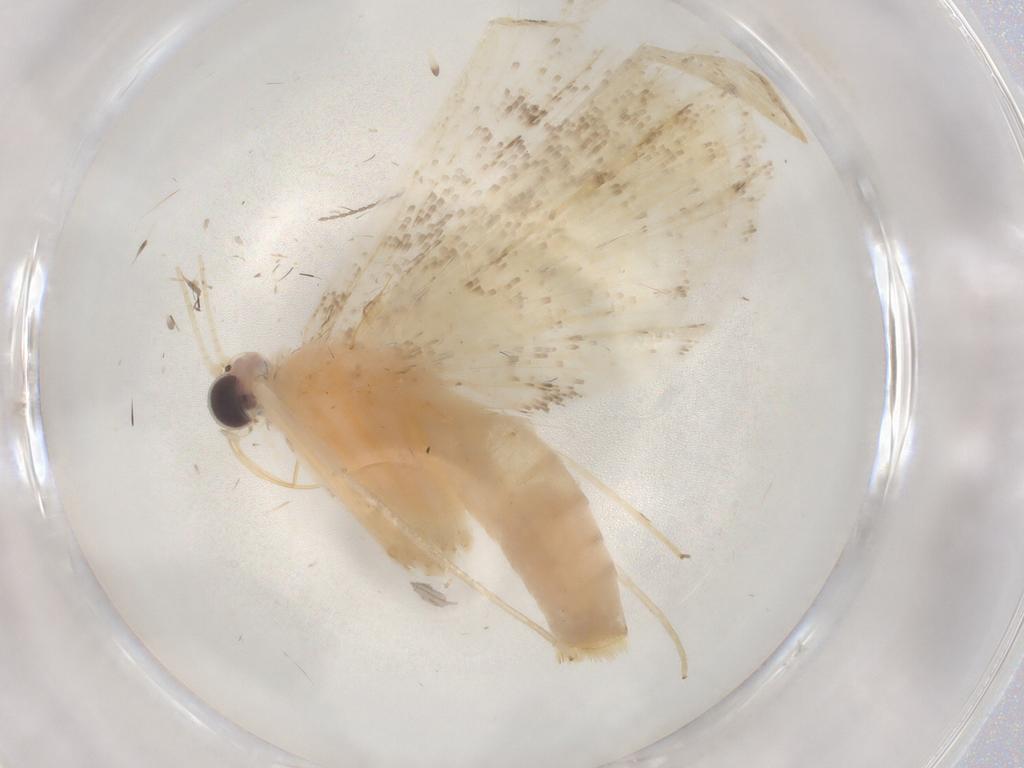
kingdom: Animalia
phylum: Arthropoda
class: Insecta
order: Lepidoptera
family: Crambidae
